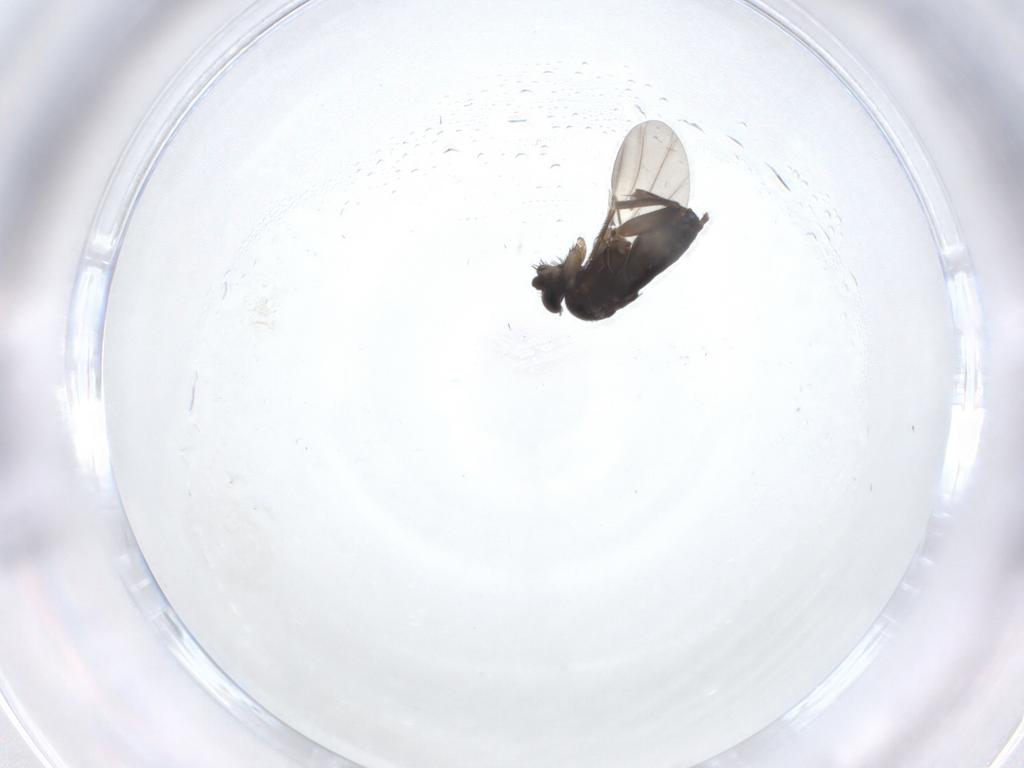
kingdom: Animalia
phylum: Arthropoda
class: Insecta
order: Diptera
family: Phoridae
